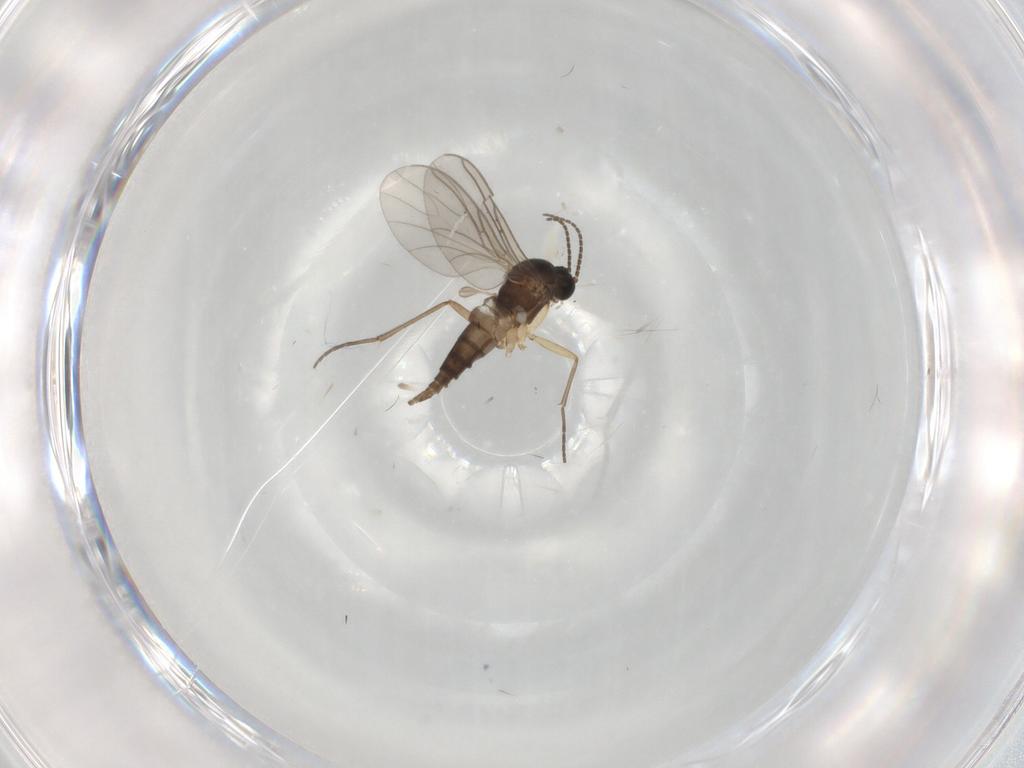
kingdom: Animalia
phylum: Arthropoda
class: Insecta
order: Diptera
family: Sciaridae
